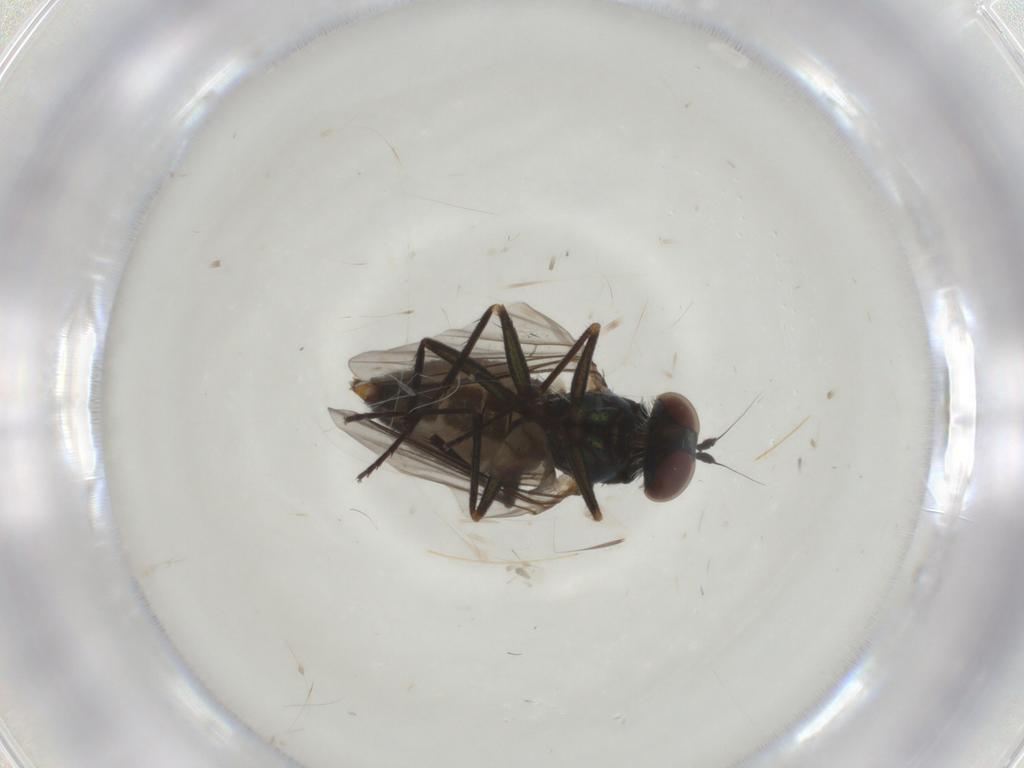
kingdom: Animalia
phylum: Arthropoda
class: Insecta
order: Diptera
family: Dolichopodidae
